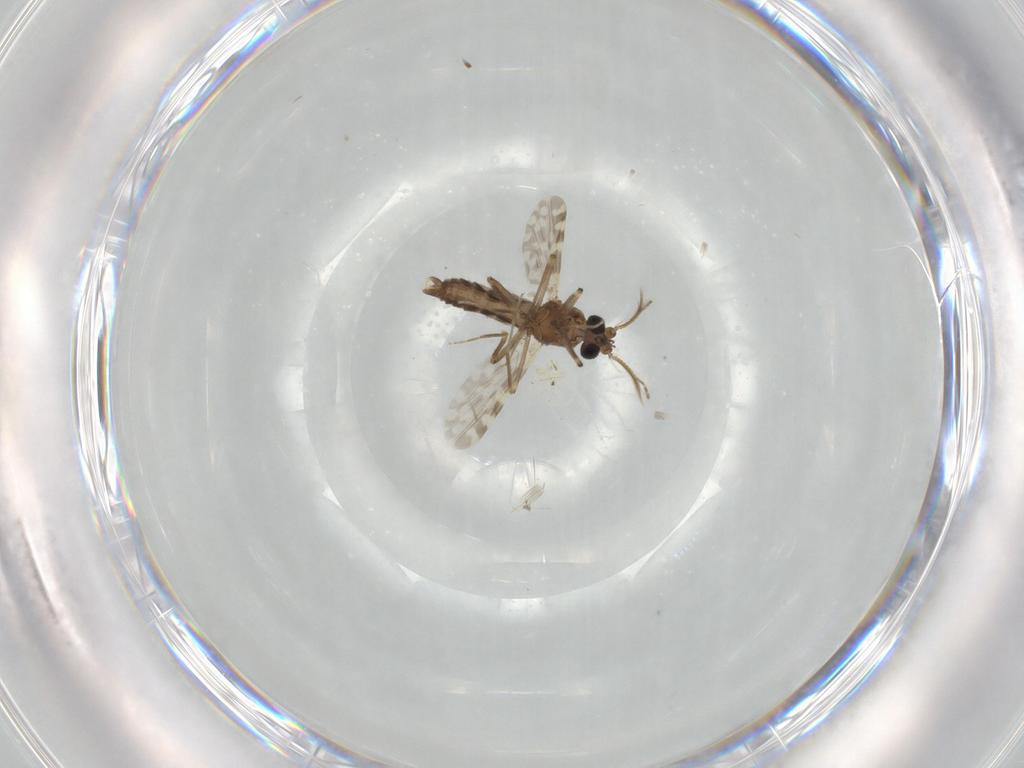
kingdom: Animalia
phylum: Arthropoda
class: Insecta
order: Diptera
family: Ceratopogonidae
